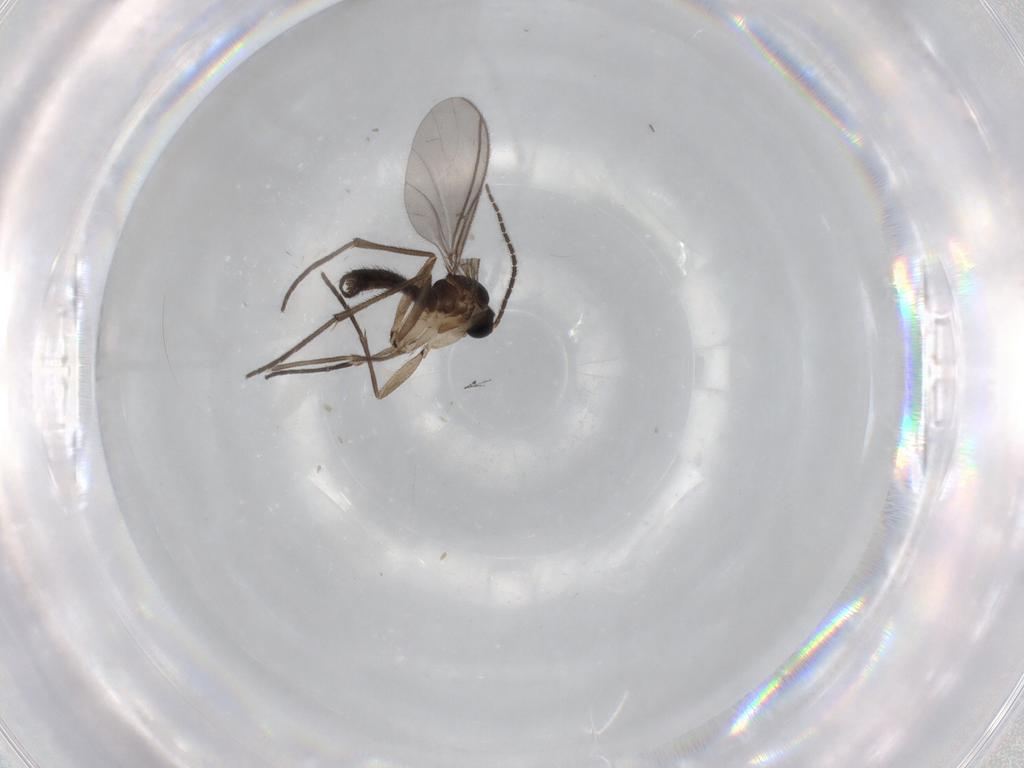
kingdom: Animalia
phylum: Arthropoda
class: Insecta
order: Diptera
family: Sciaridae
